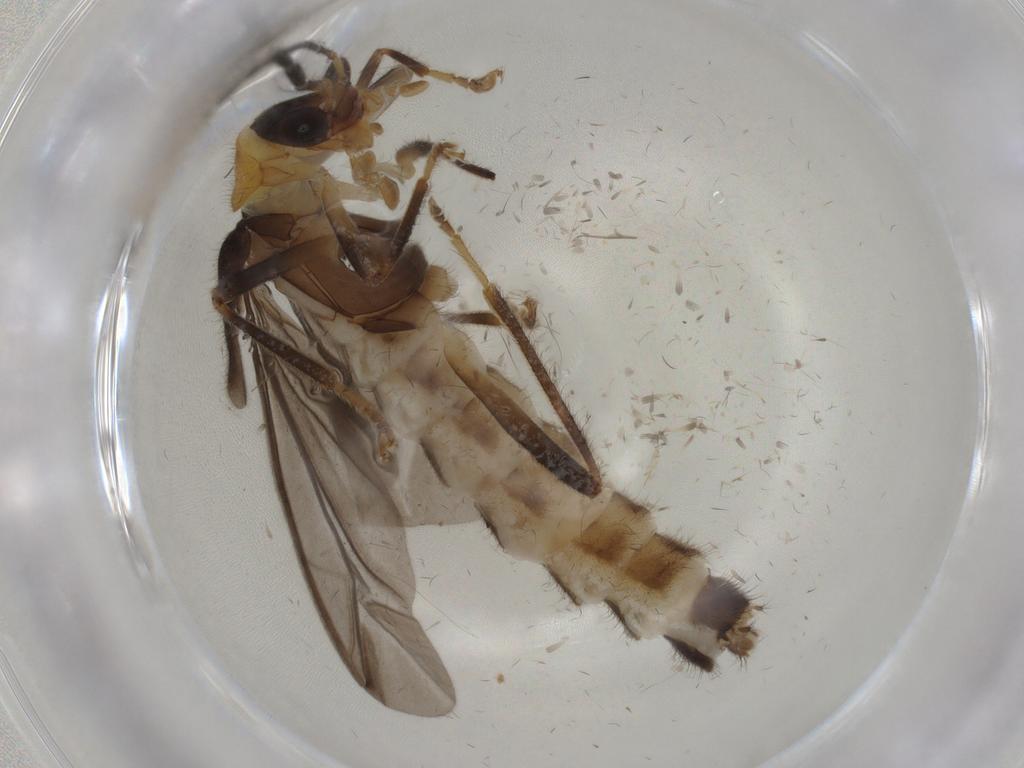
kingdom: Animalia
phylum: Arthropoda
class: Insecta
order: Coleoptera
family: Cantharidae
